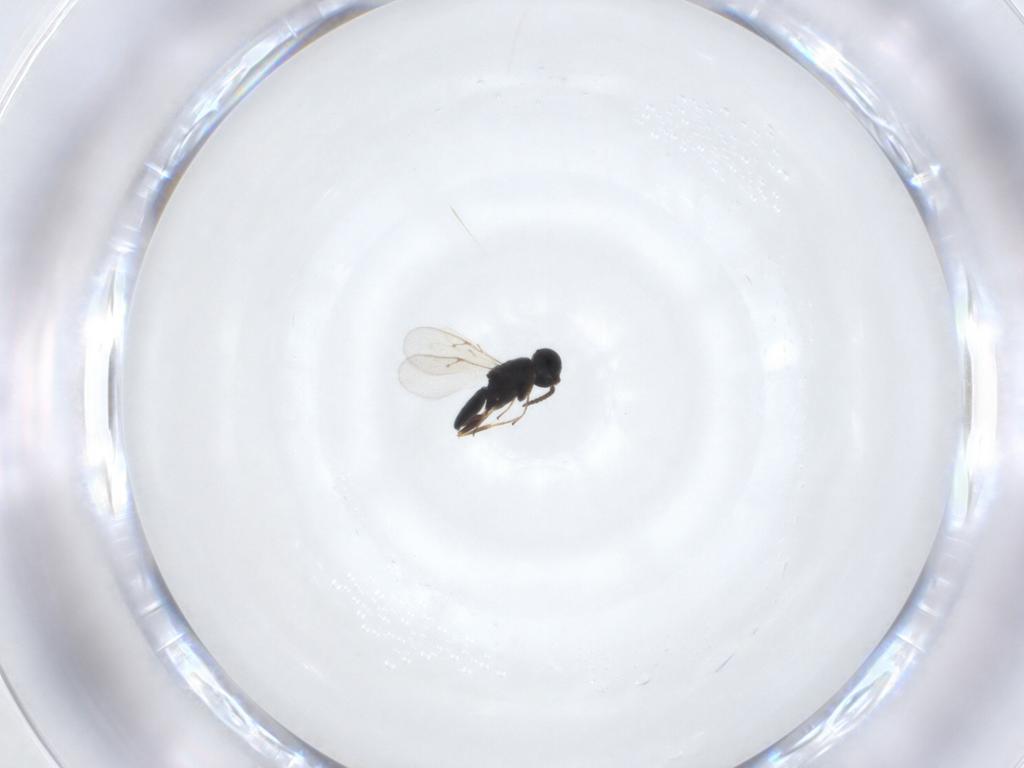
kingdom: Animalia
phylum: Arthropoda
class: Insecta
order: Hymenoptera
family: Scelionidae
